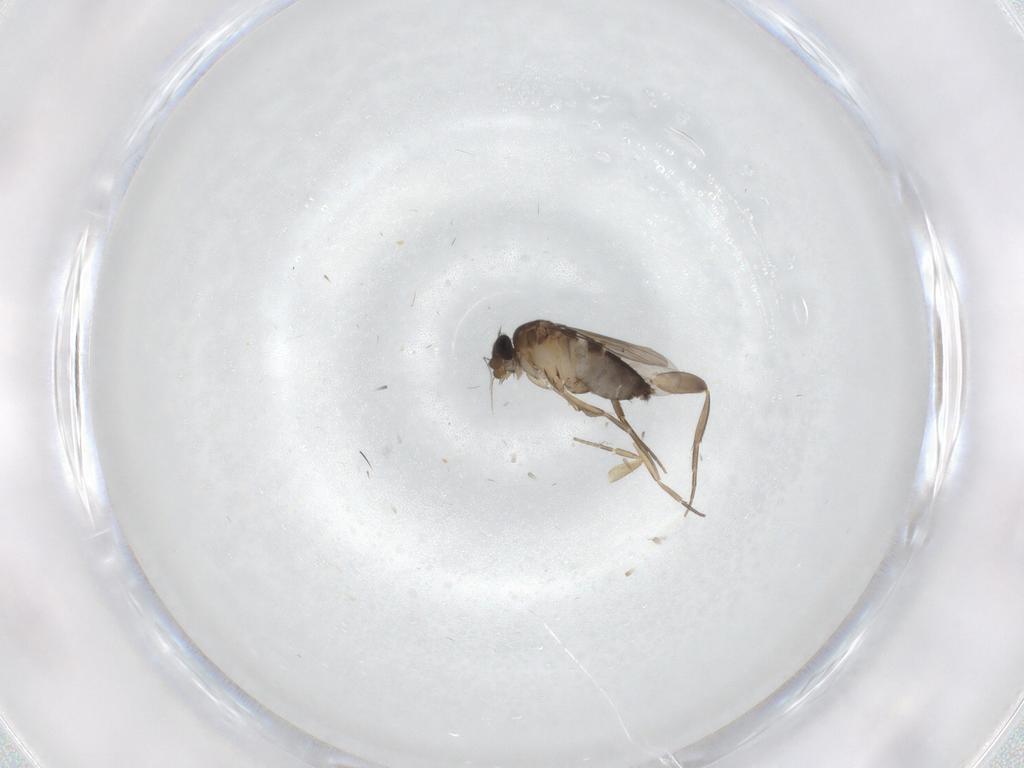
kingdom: Animalia
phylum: Arthropoda
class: Insecta
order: Diptera
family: Phoridae
